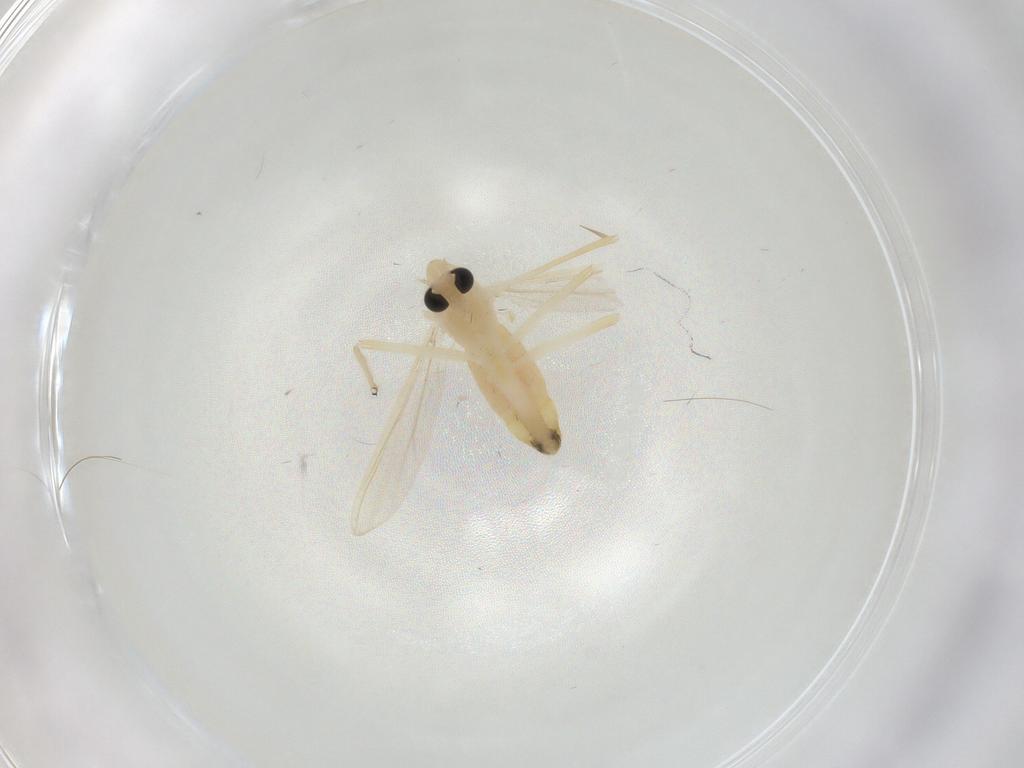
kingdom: Animalia
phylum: Arthropoda
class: Insecta
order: Diptera
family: Chironomidae
